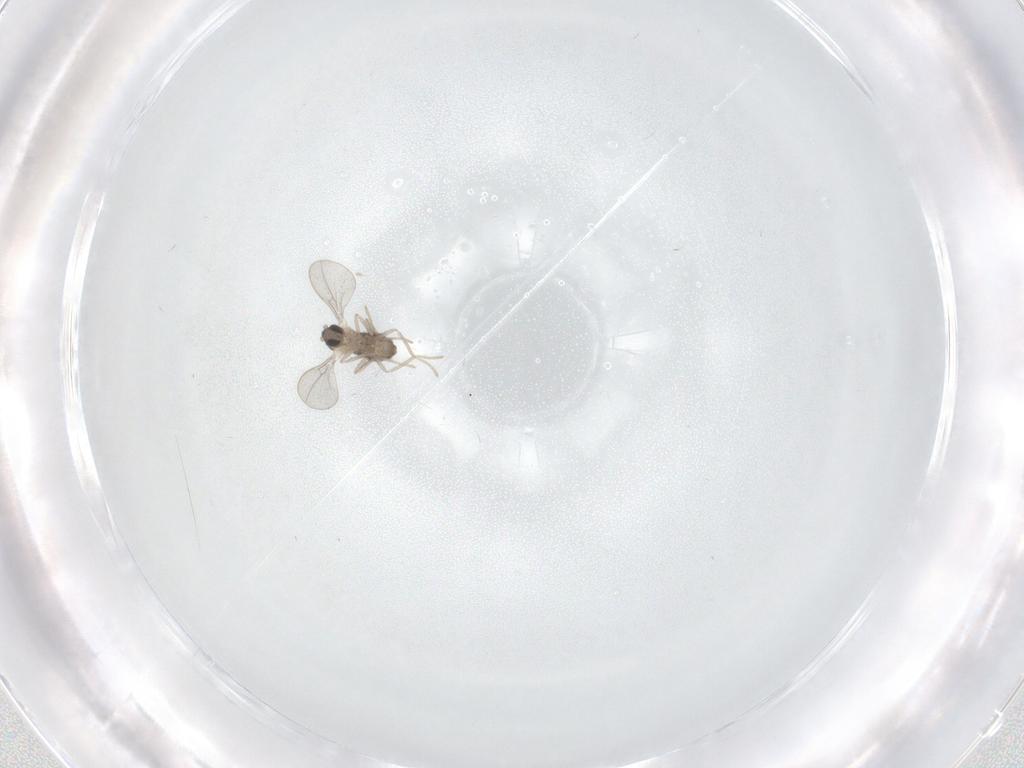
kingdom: Animalia
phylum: Arthropoda
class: Insecta
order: Diptera
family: Cecidomyiidae
